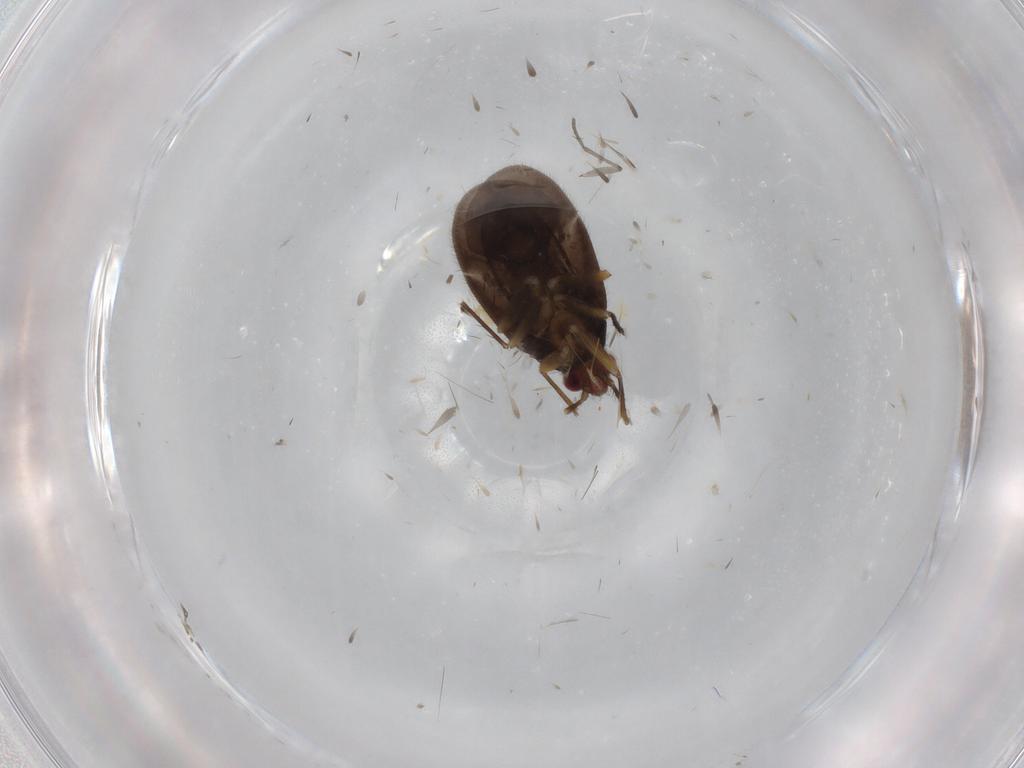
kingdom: Animalia
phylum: Arthropoda
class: Insecta
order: Hemiptera
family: Ceratocombidae
